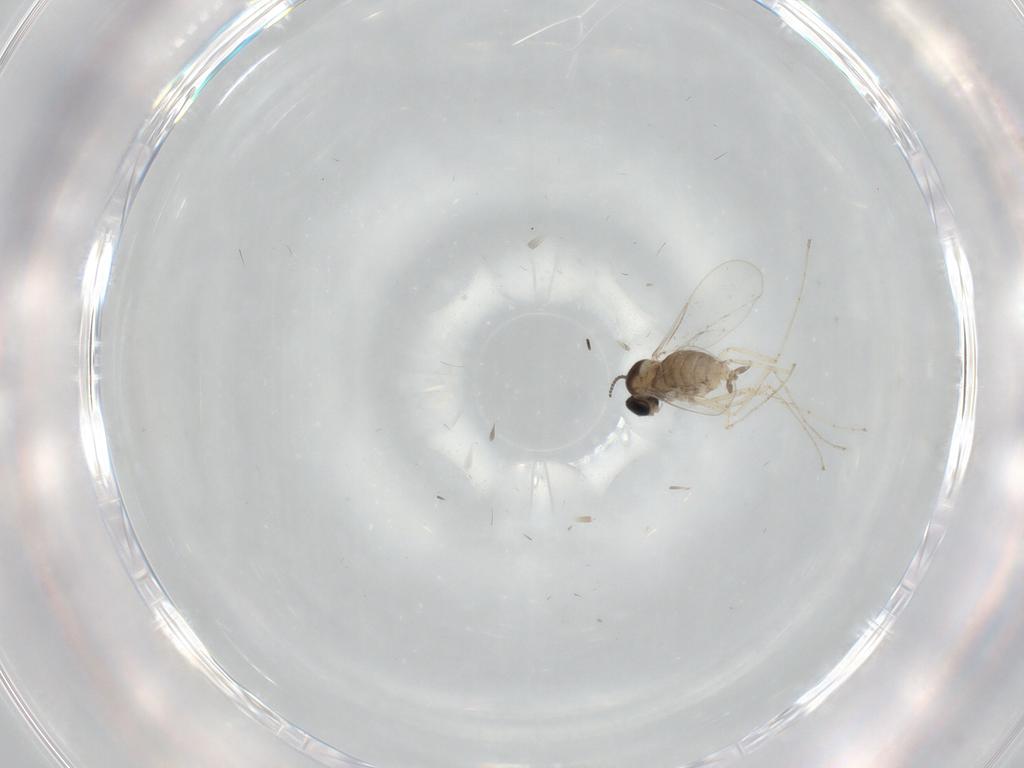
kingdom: Animalia
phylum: Arthropoda
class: Insecta
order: Diptera
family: Cecidomyiidae
